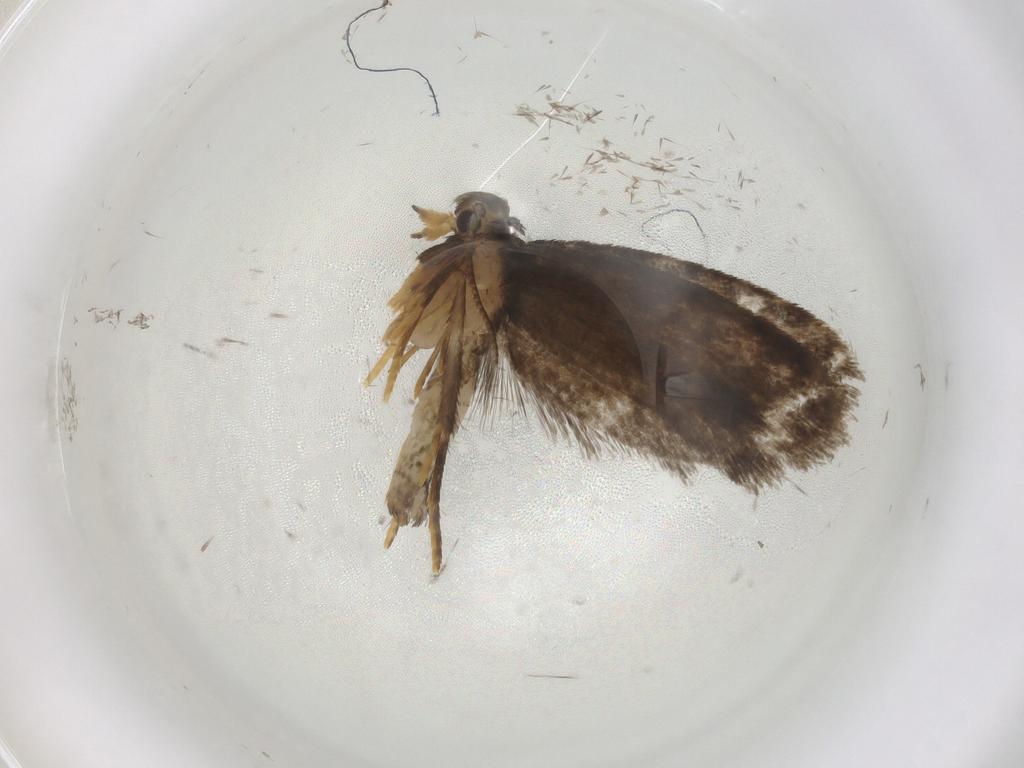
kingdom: Animalia
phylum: Arthropoda
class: Insecta
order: Lepidoptera
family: Psychidae
